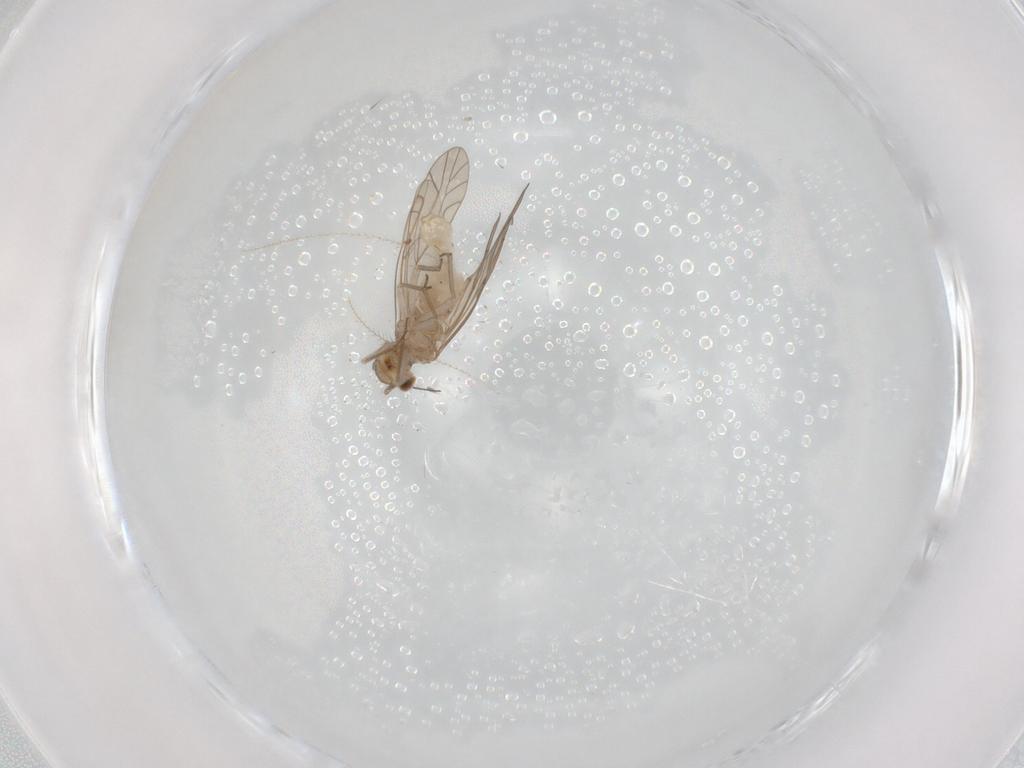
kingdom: Animalia
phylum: Arthropoda
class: Insecta
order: Psocodea
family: Lachesillidae
